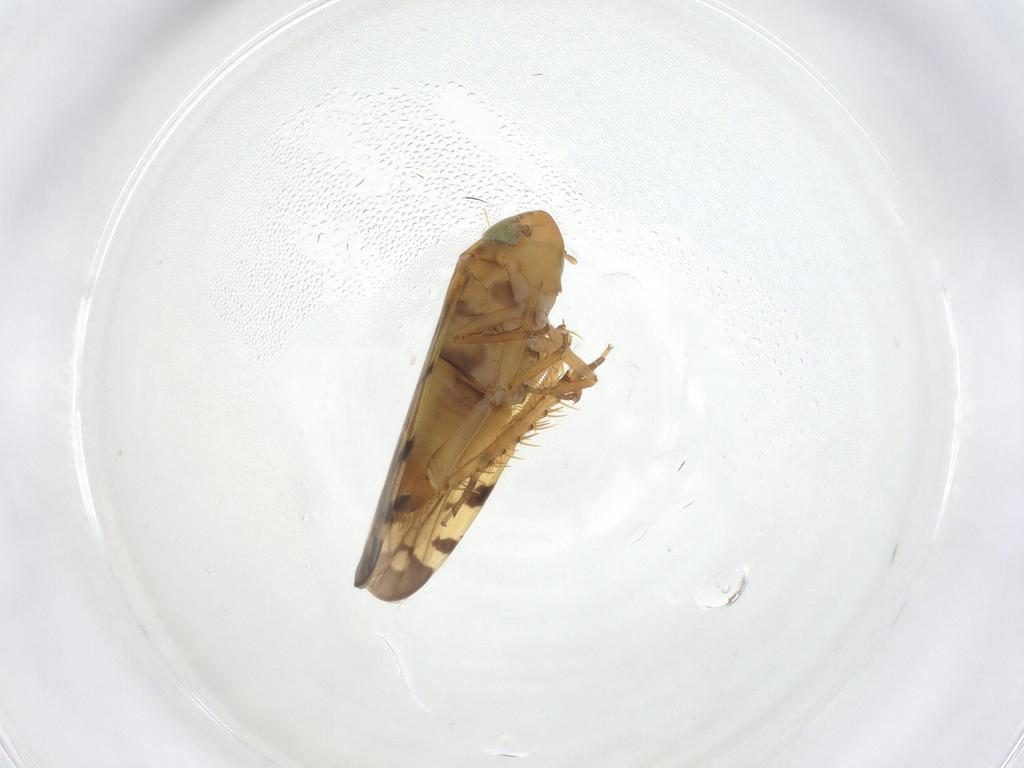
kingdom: Animalia
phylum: Arthropoda
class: Insecta
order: Hemiptera
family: Cicadellidae
